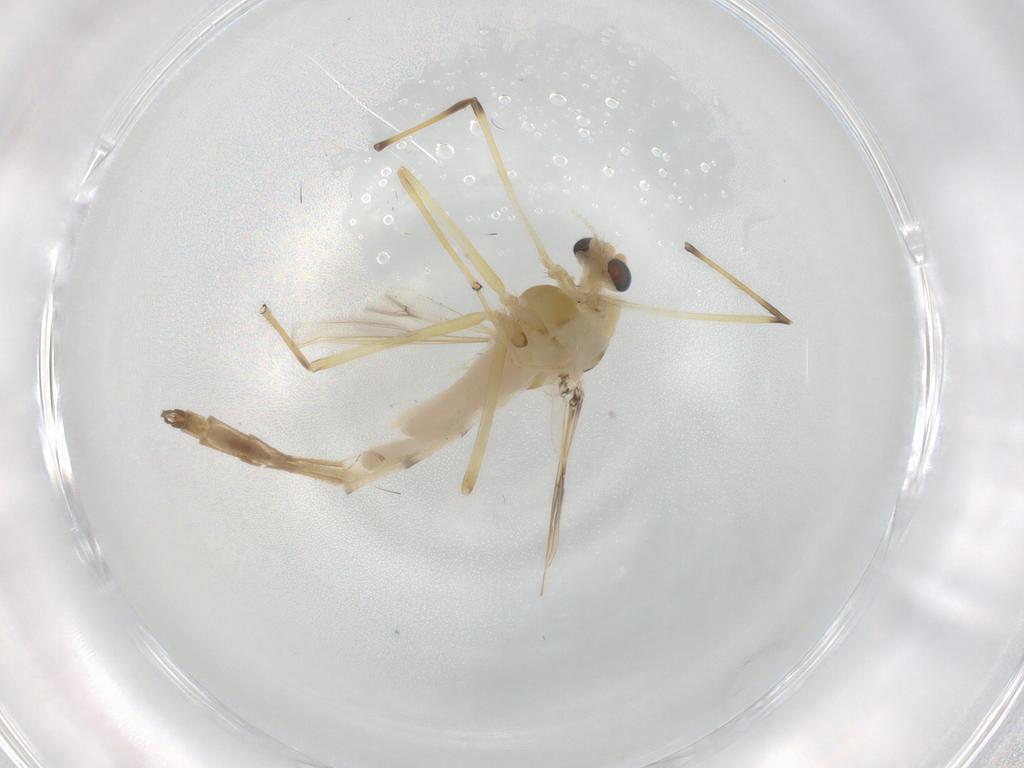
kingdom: Animalia
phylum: Arthropoda
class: Insecta
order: Diptera
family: Chironomidae
